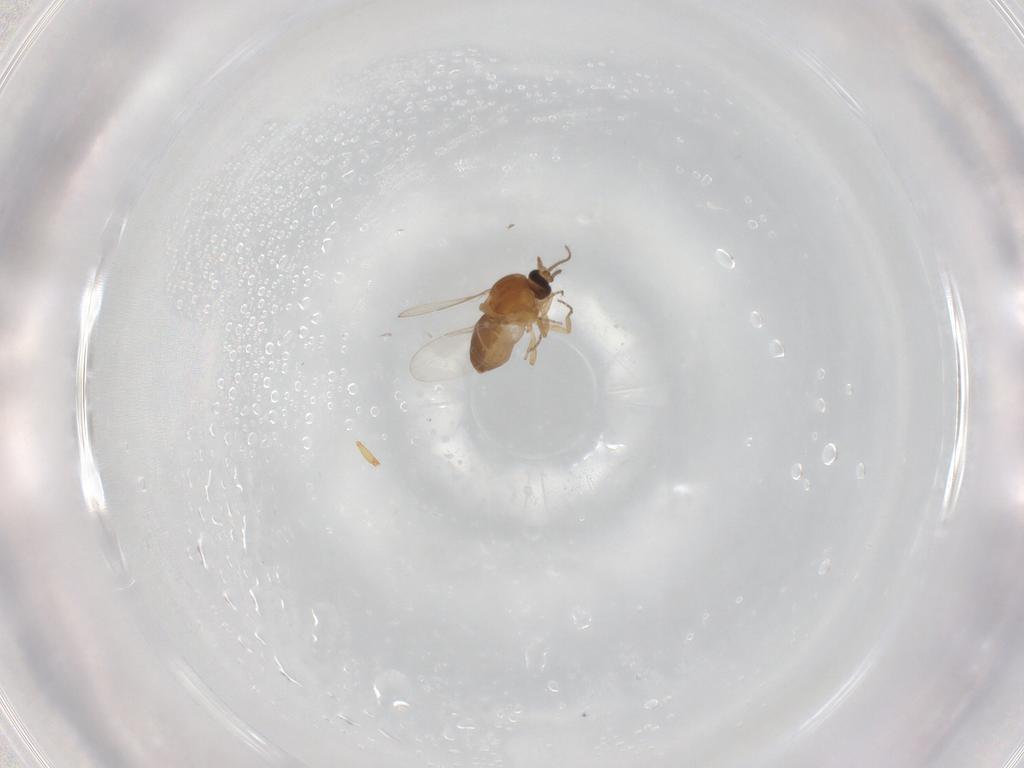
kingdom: Animalia
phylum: Arthropoda
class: Insecta
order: Diptera
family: Ceratopogonidae
